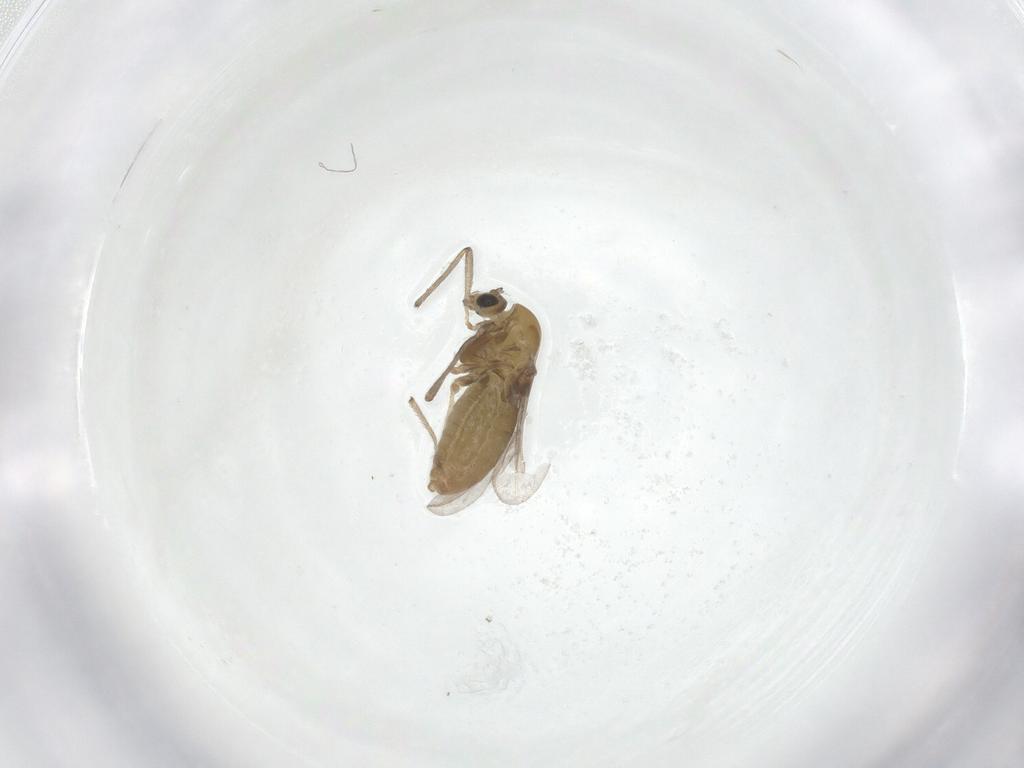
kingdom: Animalia
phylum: Arthropoda
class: Insecta
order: Diptera
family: Chironomidae
